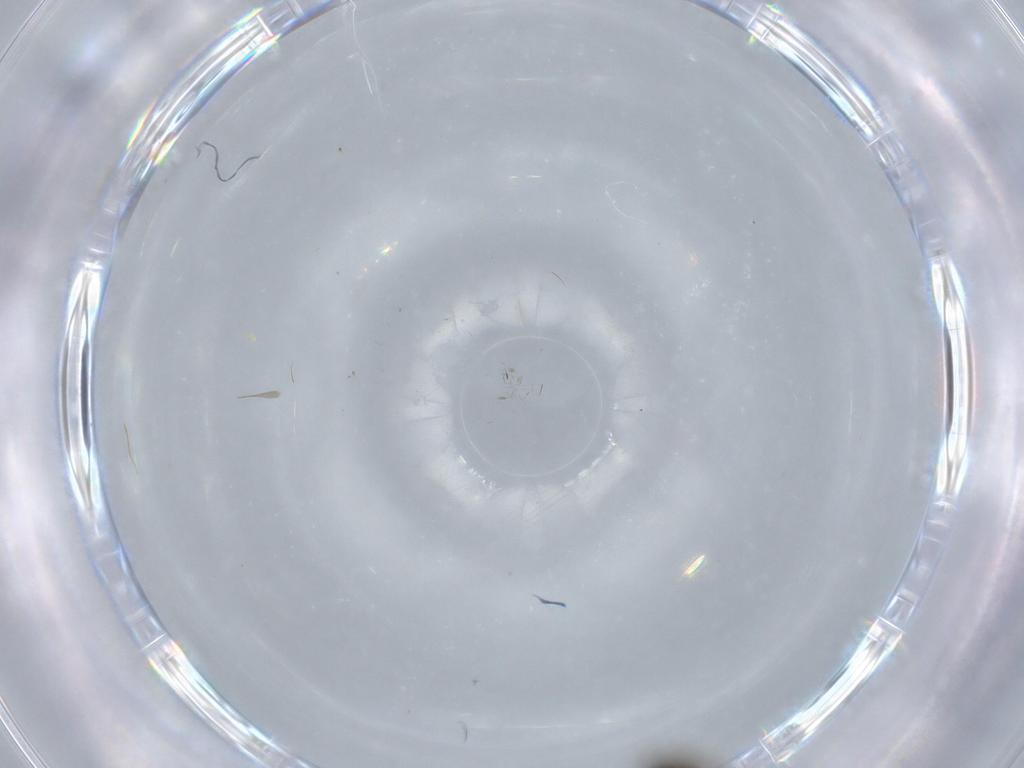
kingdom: Animalia
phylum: Arthropoda
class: Insecta
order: Diptera
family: Phoridae
